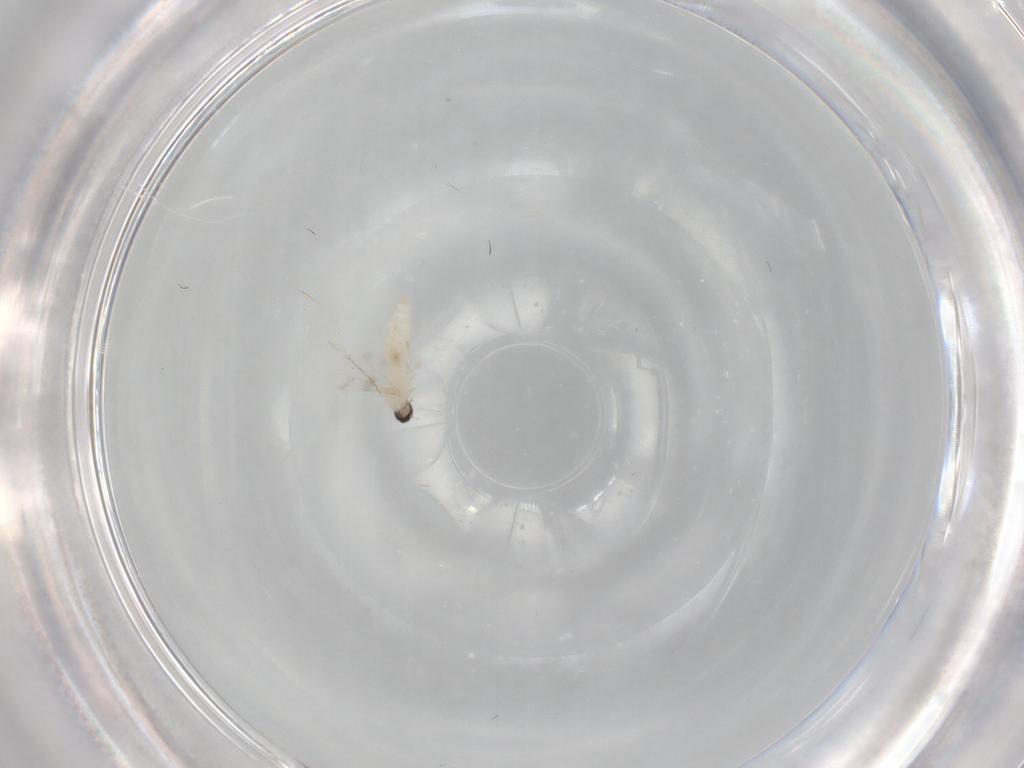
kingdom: Animalia
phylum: Arthropoda
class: Insecta
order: Diptera
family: Cecidomyiidae
